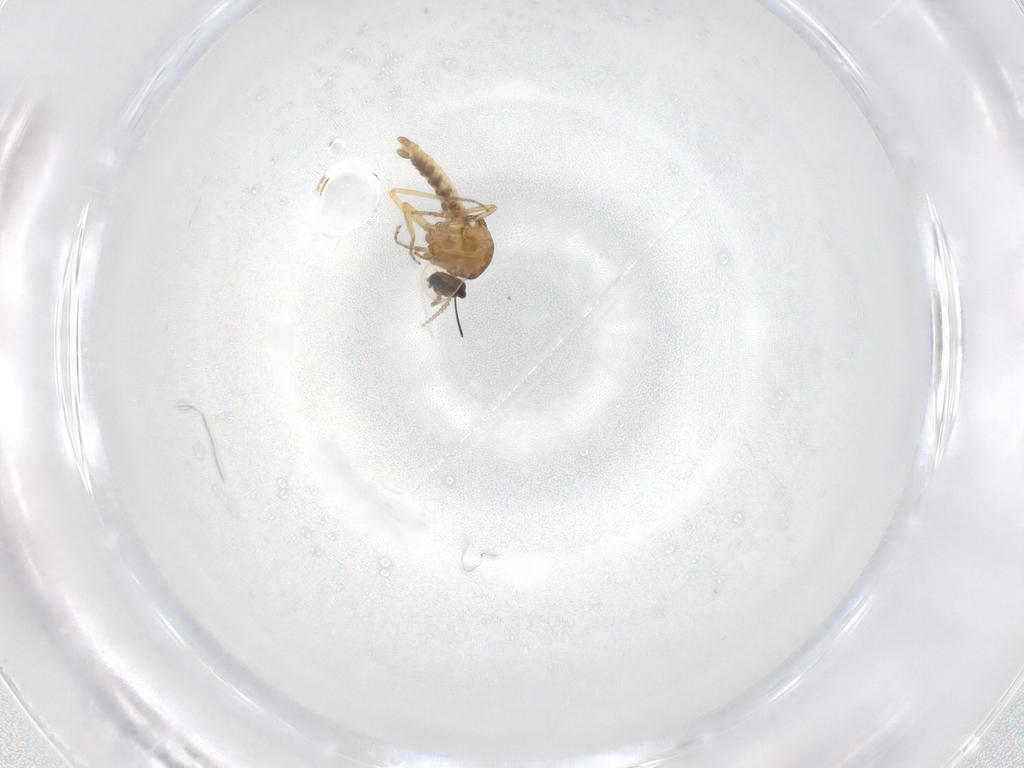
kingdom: Animalia
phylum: Arthropoda
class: Insecta
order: Diptera
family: Ceratopogonidae
